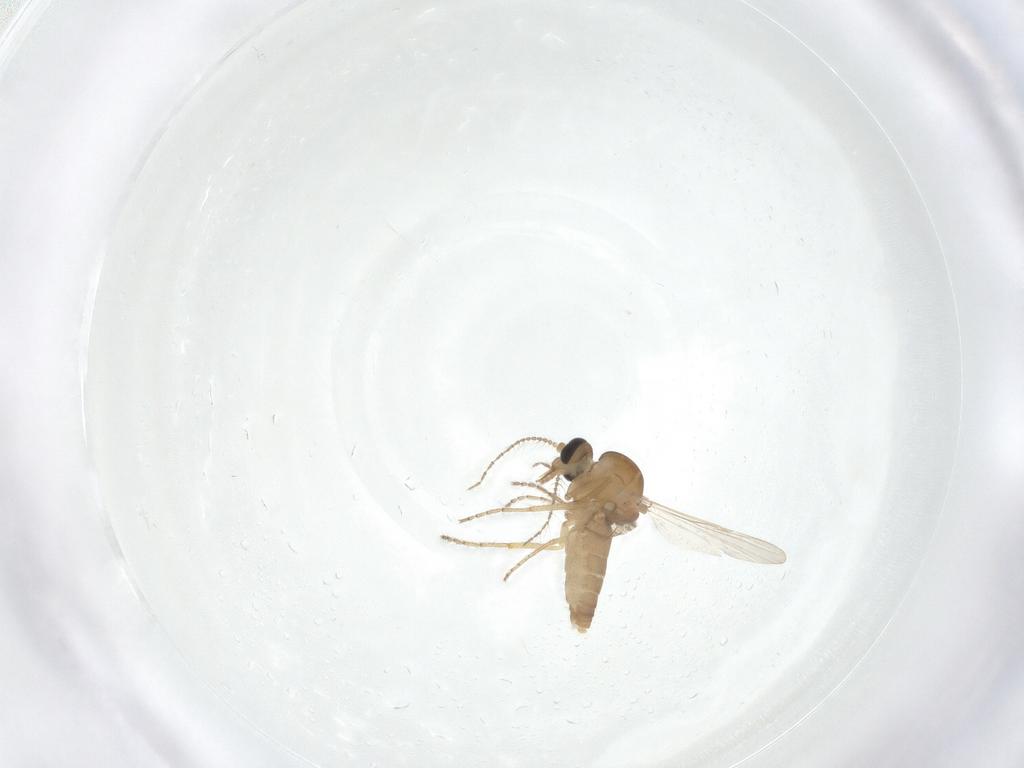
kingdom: Animalia
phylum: Arthropoda
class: Insecta
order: Diptera
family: Ceratopogonidae
